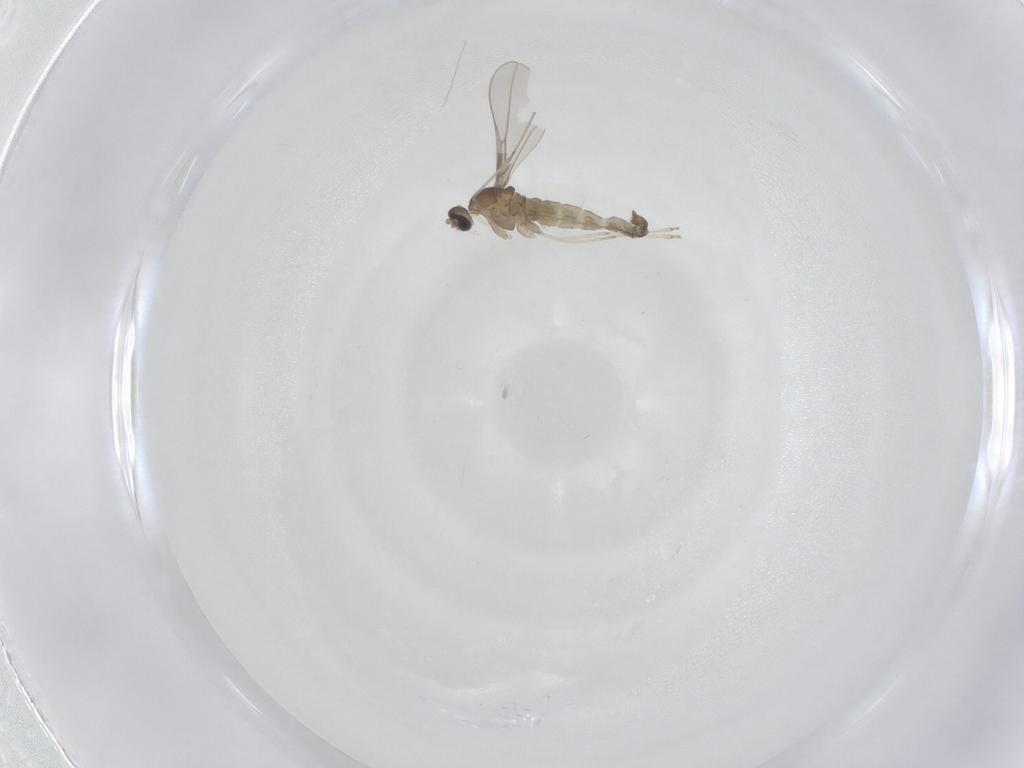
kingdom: Animalia
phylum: Arthropoda
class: Insecta
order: Diptera
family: Cecidomyiidae
